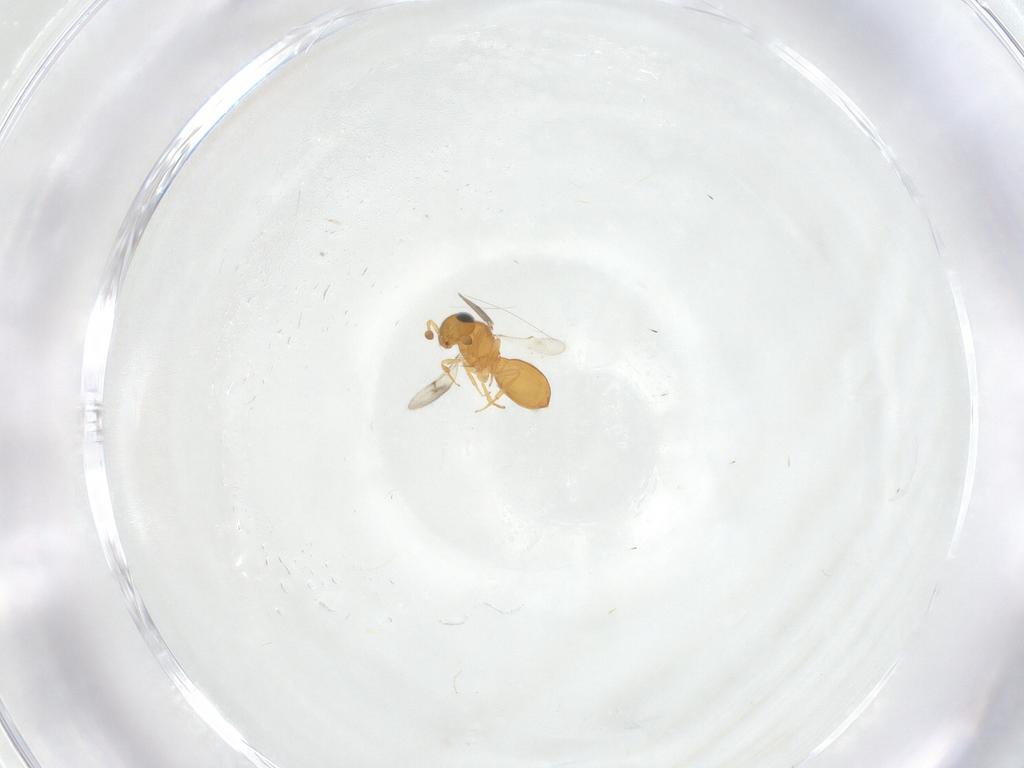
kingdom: Animalia
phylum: Arthropoda
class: Insecta
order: Hymenoptera
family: Scelionidae
